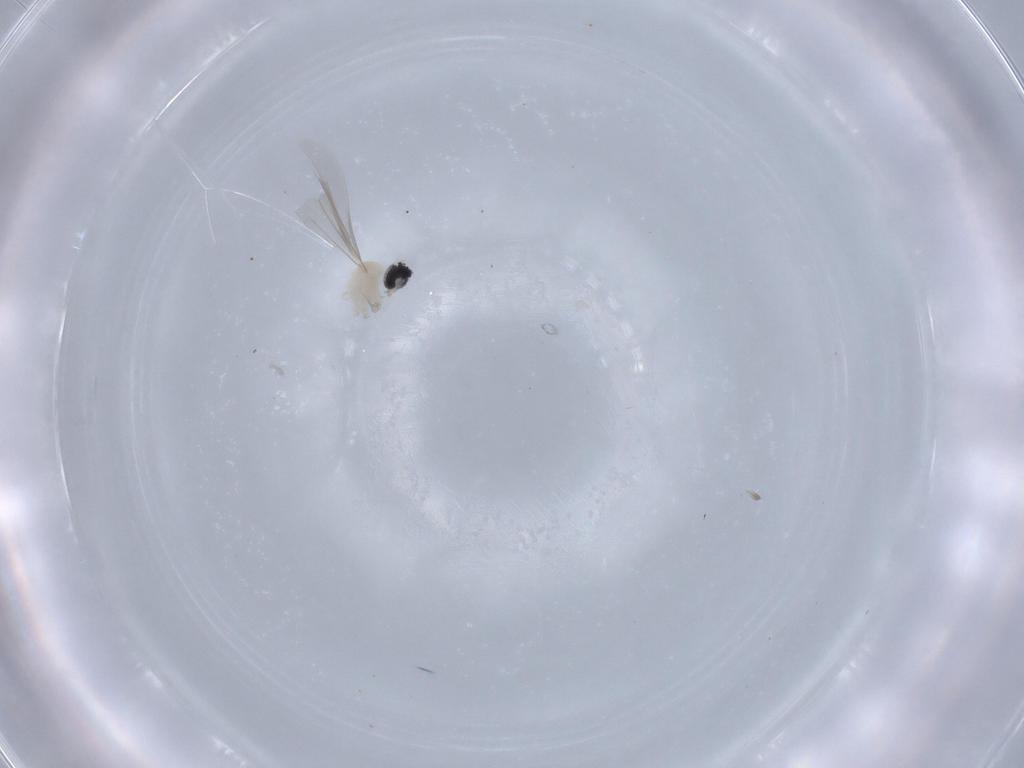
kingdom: Animalia
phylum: Arthropoda
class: Insecta
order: Diptera
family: Cecidomyiidae
